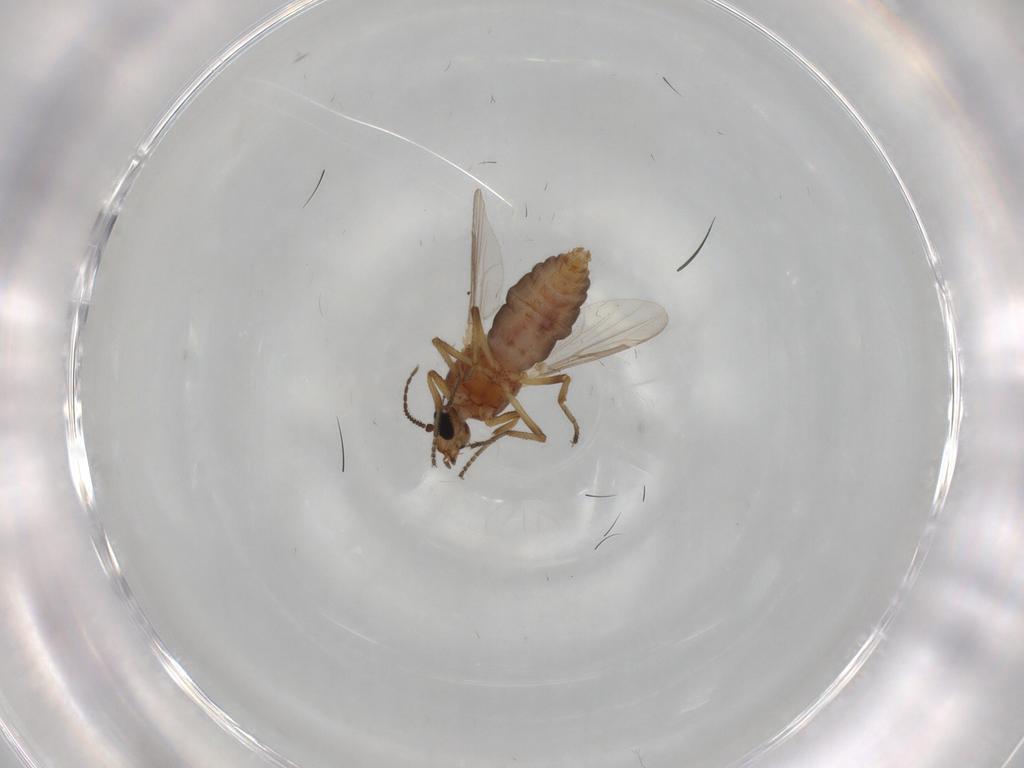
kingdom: Animalia
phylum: Arthropoda
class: Insecta
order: Diptera
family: Ceratopogonidae
